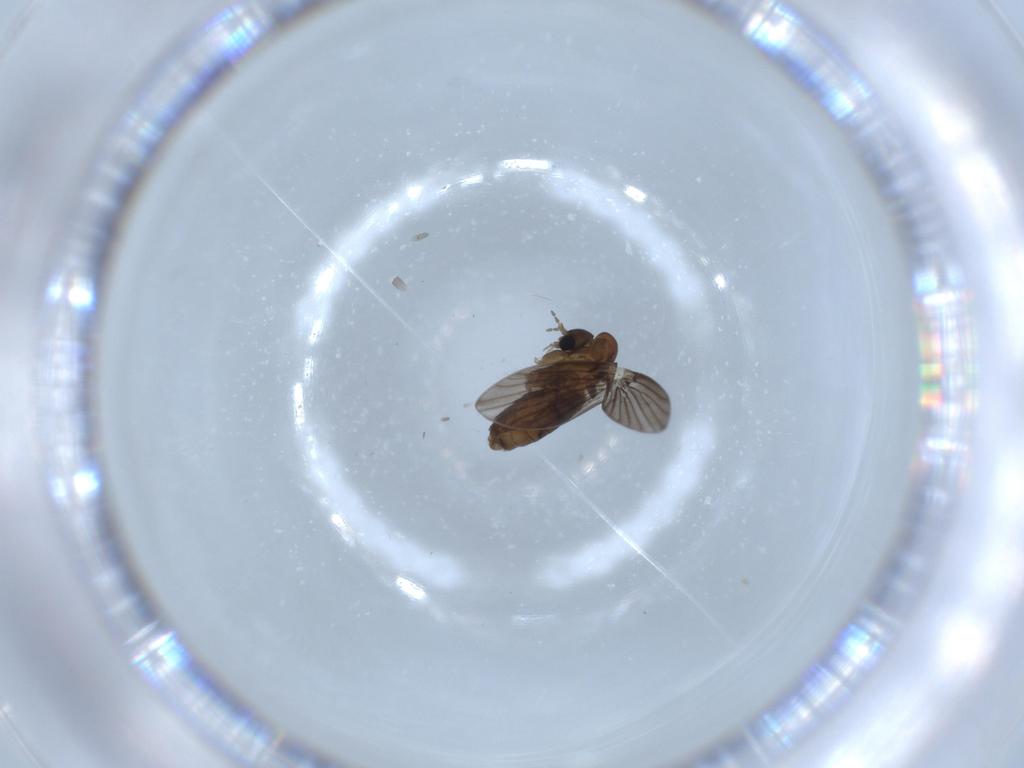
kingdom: Animalia
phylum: Arthropoda
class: Insecta
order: Diptera
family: Psychodidae
